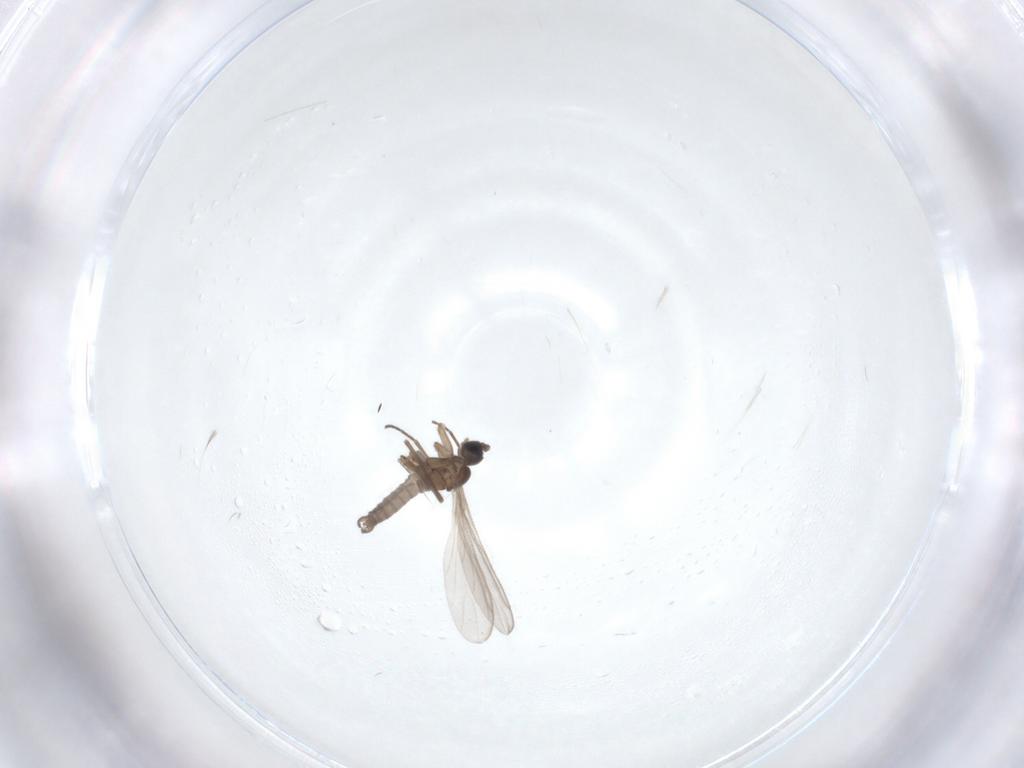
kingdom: Animalia
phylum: Arthropoda
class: Insecta
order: Diptera
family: Sciaridae
